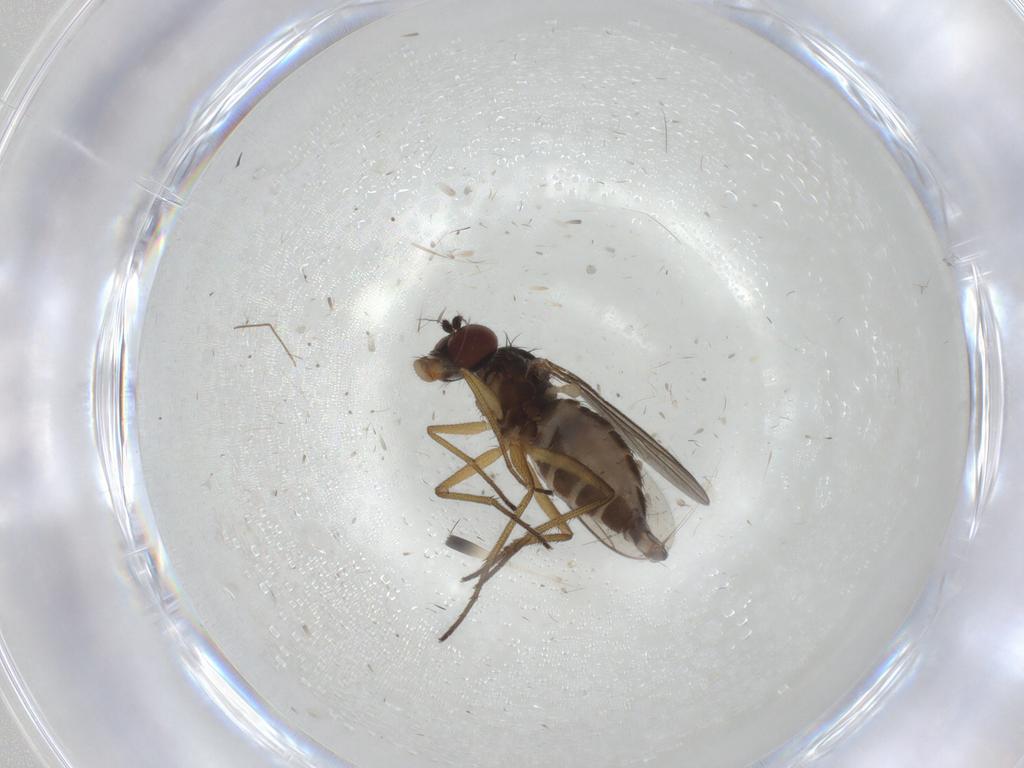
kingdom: Animalia
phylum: Arthropoda
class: Insecta
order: Diptera
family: Dolichopodidae
